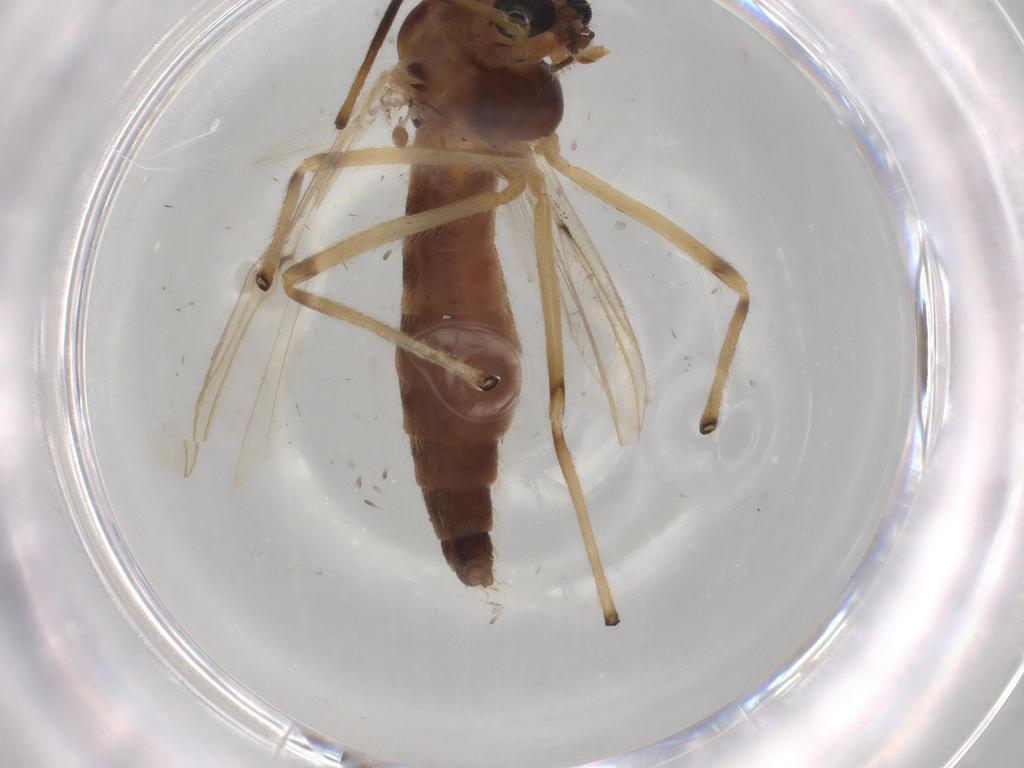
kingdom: Animalia
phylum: Arthropoda
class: Insecta
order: Diptera
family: Chironomidae
